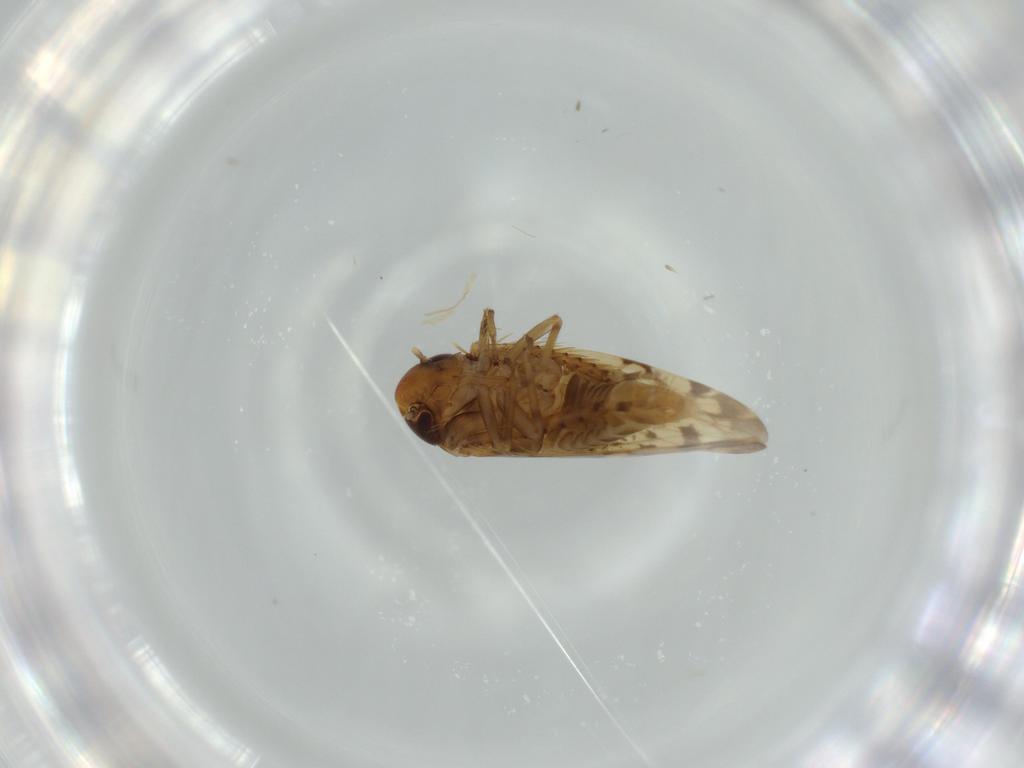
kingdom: Animalia
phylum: Arthropoda
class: Insecta
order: Hemiptera
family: Cicadellidae
